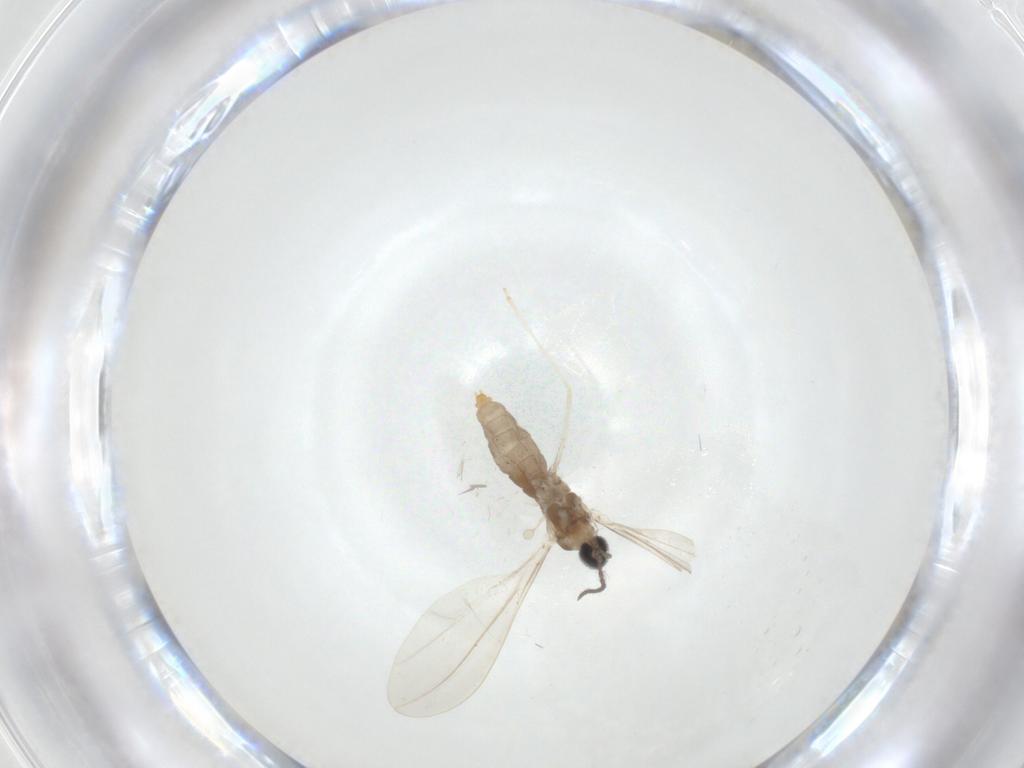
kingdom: Animalia
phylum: Arthropoda
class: Insecta
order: Diptera
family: Cecidomyiidae
